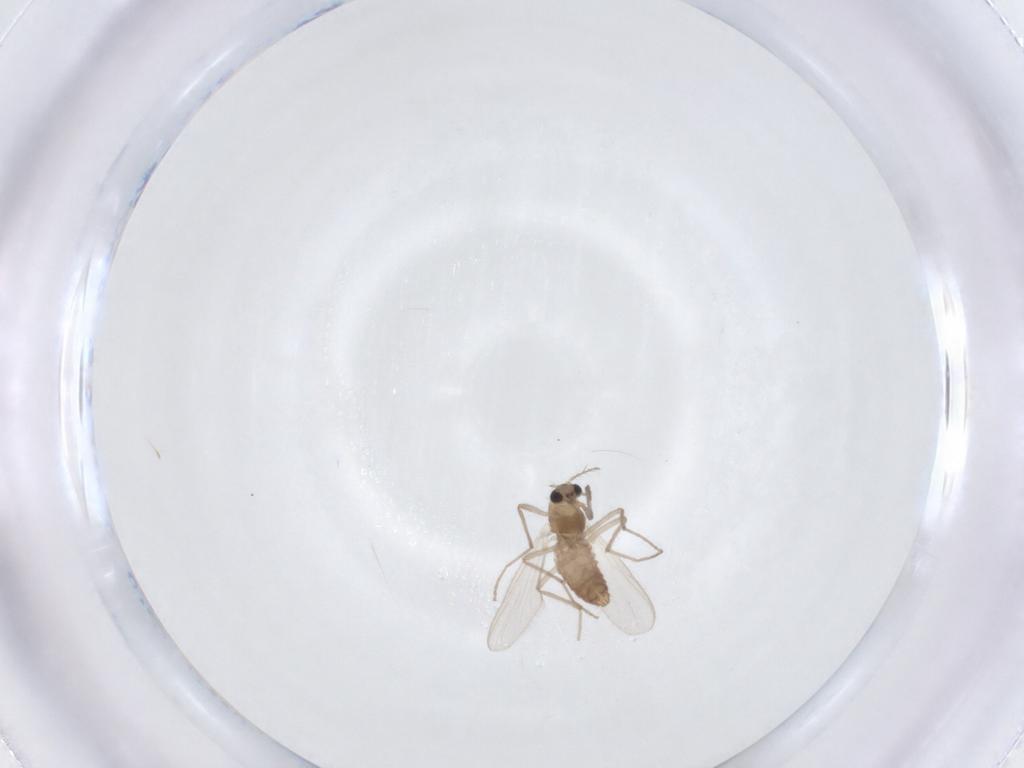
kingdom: Animalia
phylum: Arthropoda
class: Insecta
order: Diptera
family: Chironomidae
